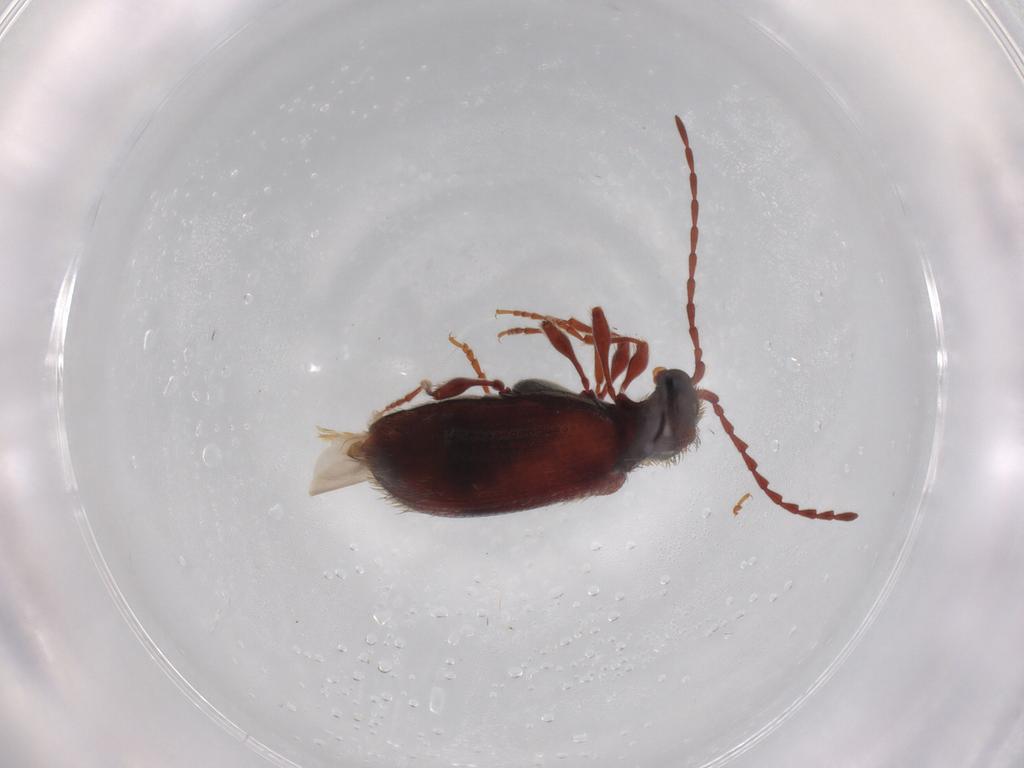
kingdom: Animalia
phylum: Arthropoda
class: Insecta
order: Coleoptera
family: Ptinidae
